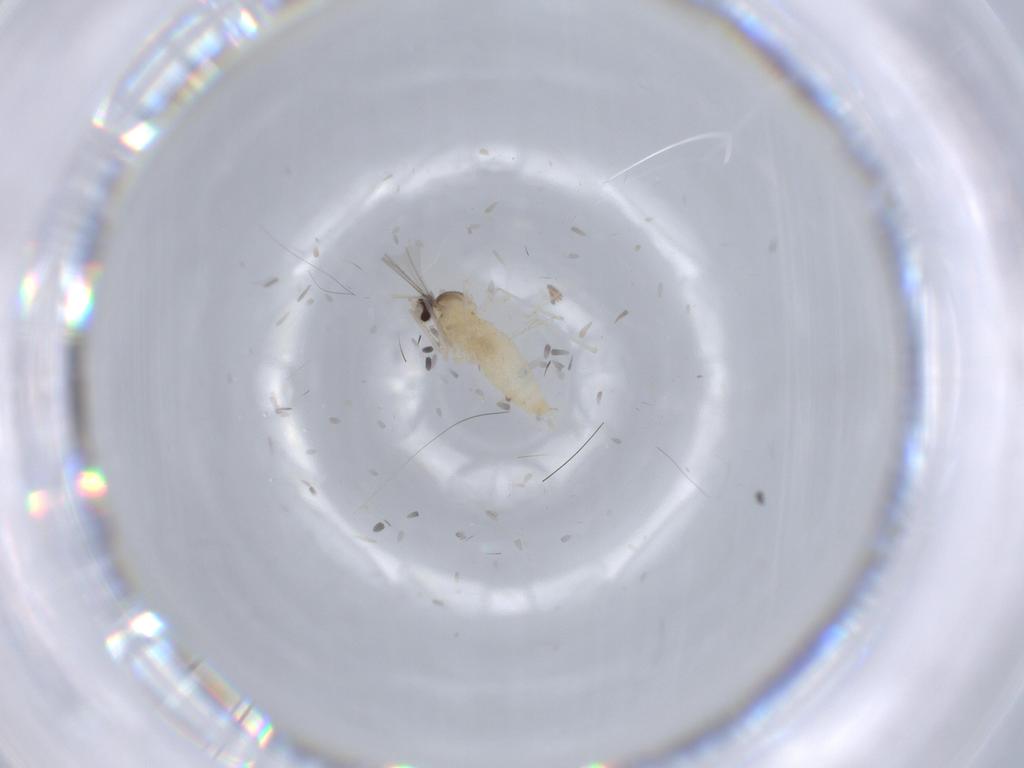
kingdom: Animalia
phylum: Arthropoda
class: Insecta
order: Diptera
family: Cecidomyiidae
